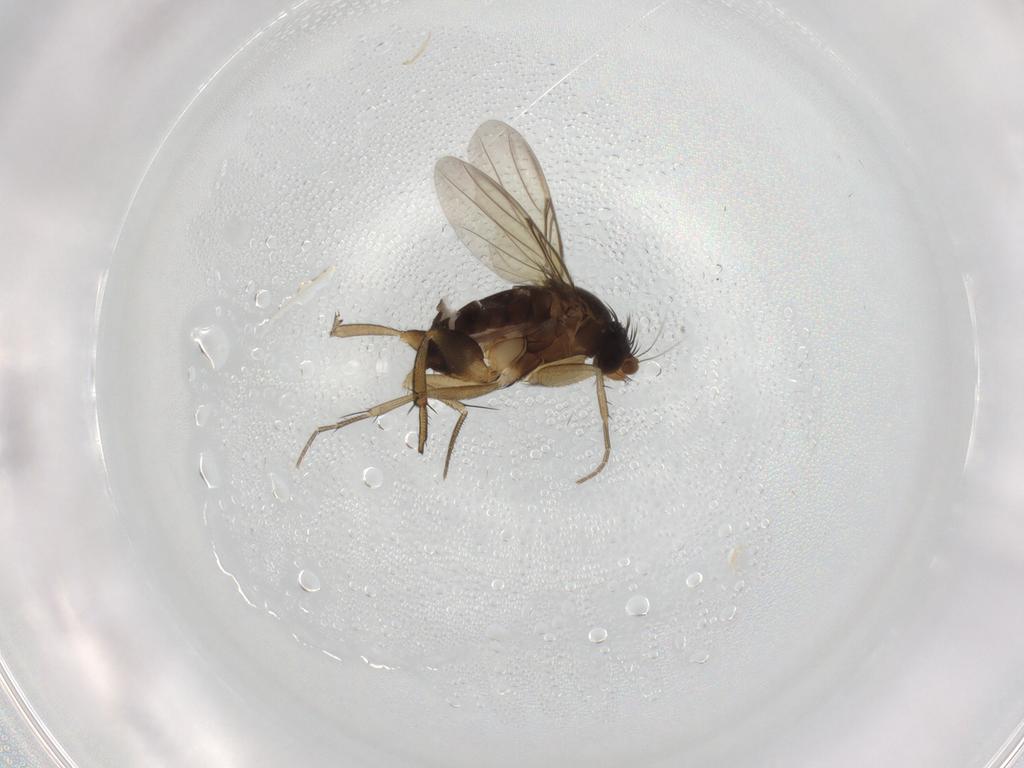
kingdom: Animalia
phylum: Arthropoda
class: Insecta
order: Diptera
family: Phoridae
